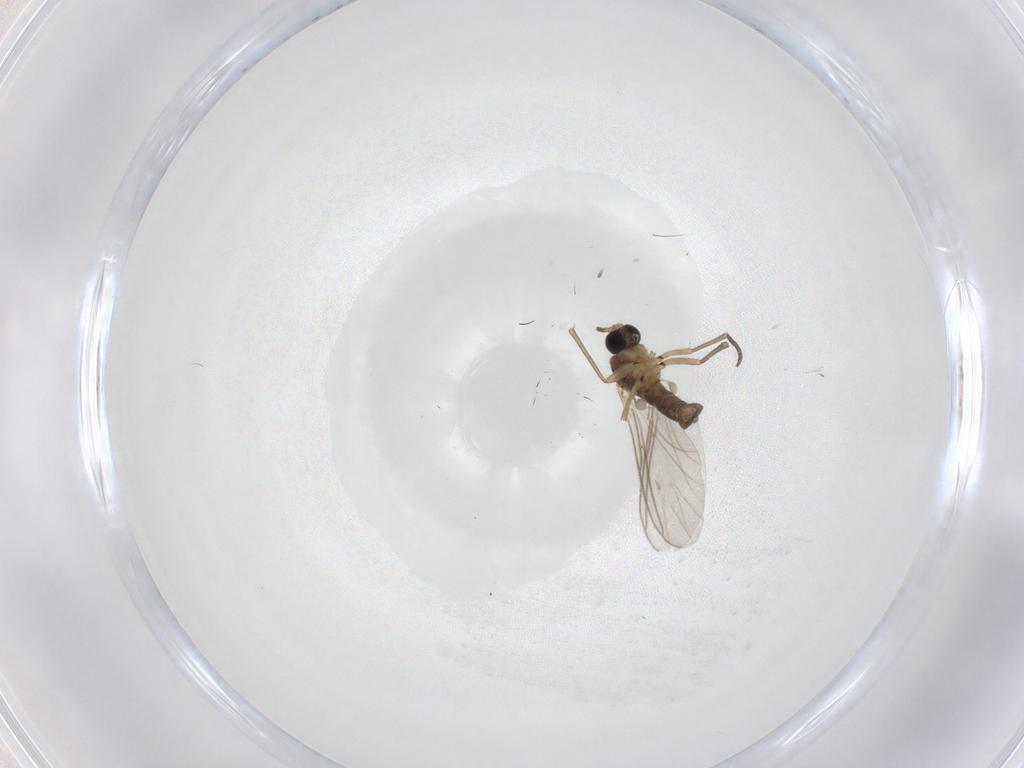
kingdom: Animalia
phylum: Arthropoda
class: Insecta
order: Diptera
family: Sciaridae
